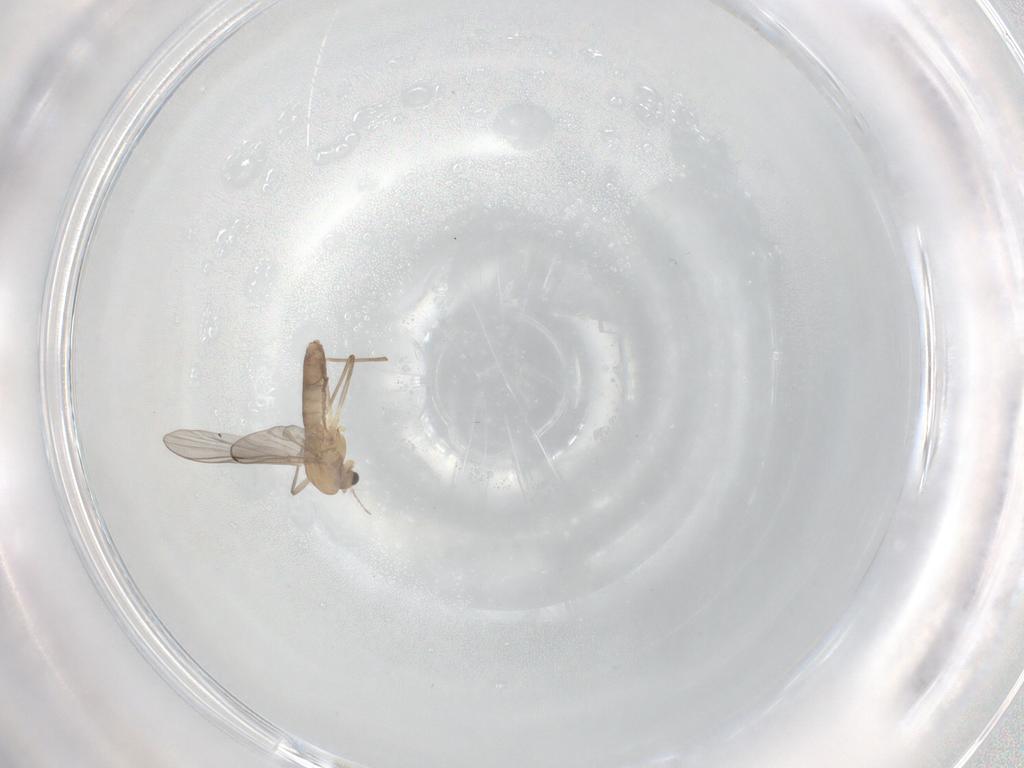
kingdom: Animalia
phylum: Arthropoda
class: Insecta
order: Diptera
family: Chironomidae
